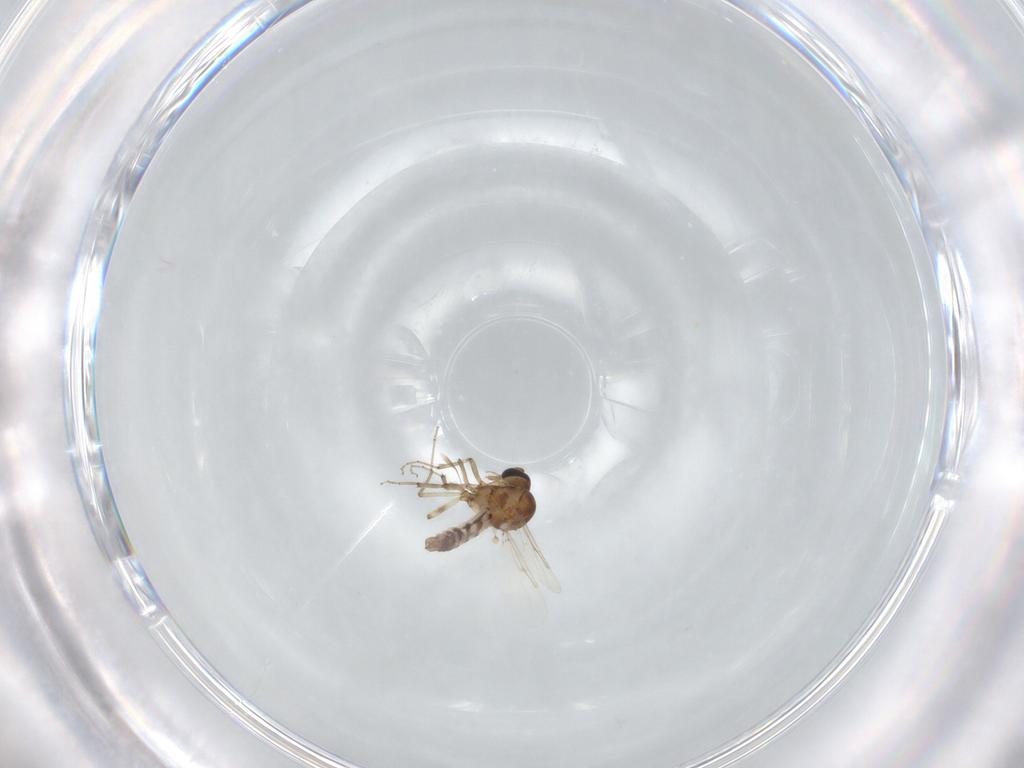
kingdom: Animalia
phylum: Arthropoda
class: Insecta
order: Diptera
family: Ceratopogonidae
